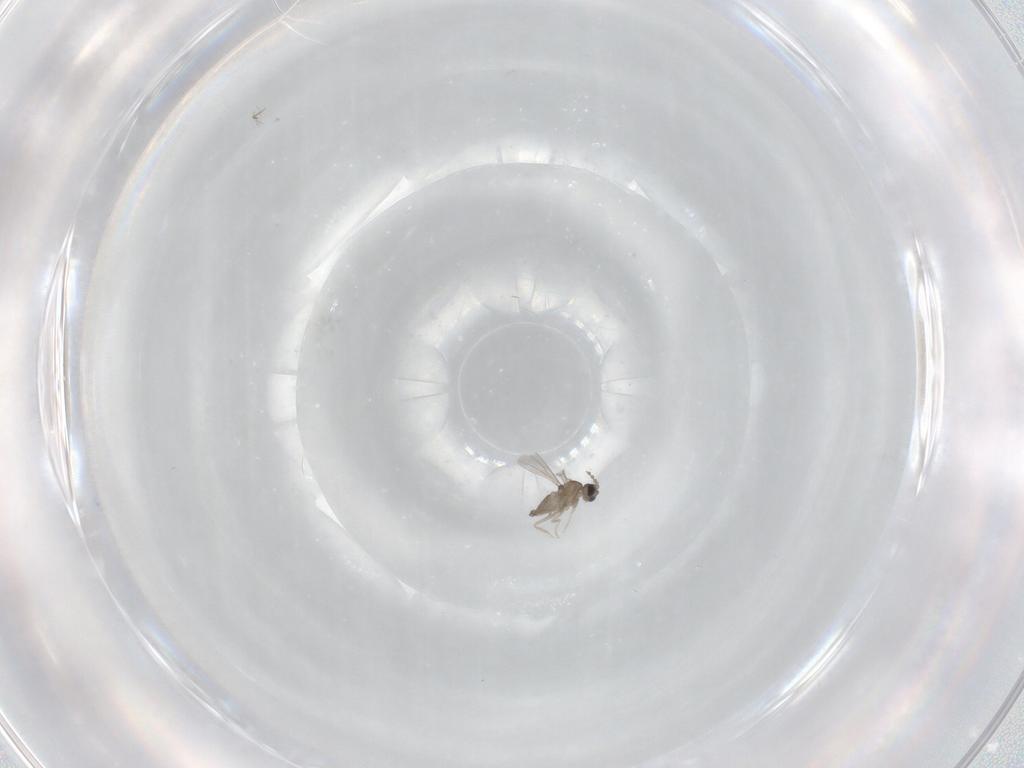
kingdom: Animalia
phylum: Arthropoda
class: Insecta
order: Diptera
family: Cecidomyiidae
